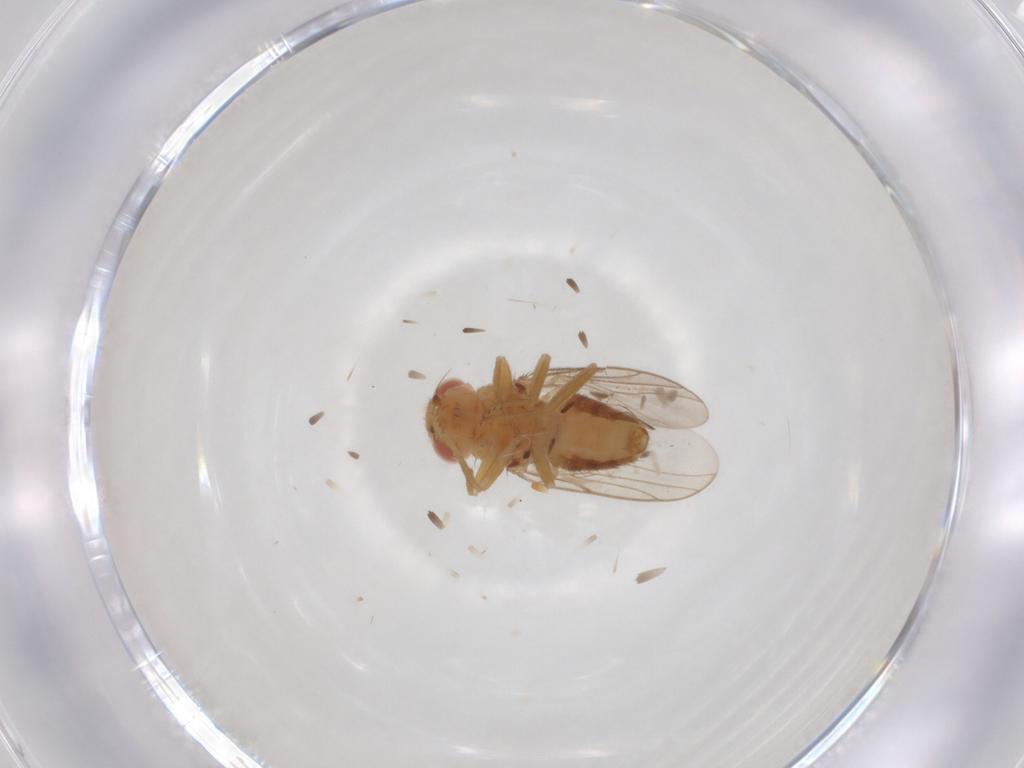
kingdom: Animalia
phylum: Arthropoda
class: Insecta
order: Diptera
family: Chloropidae
